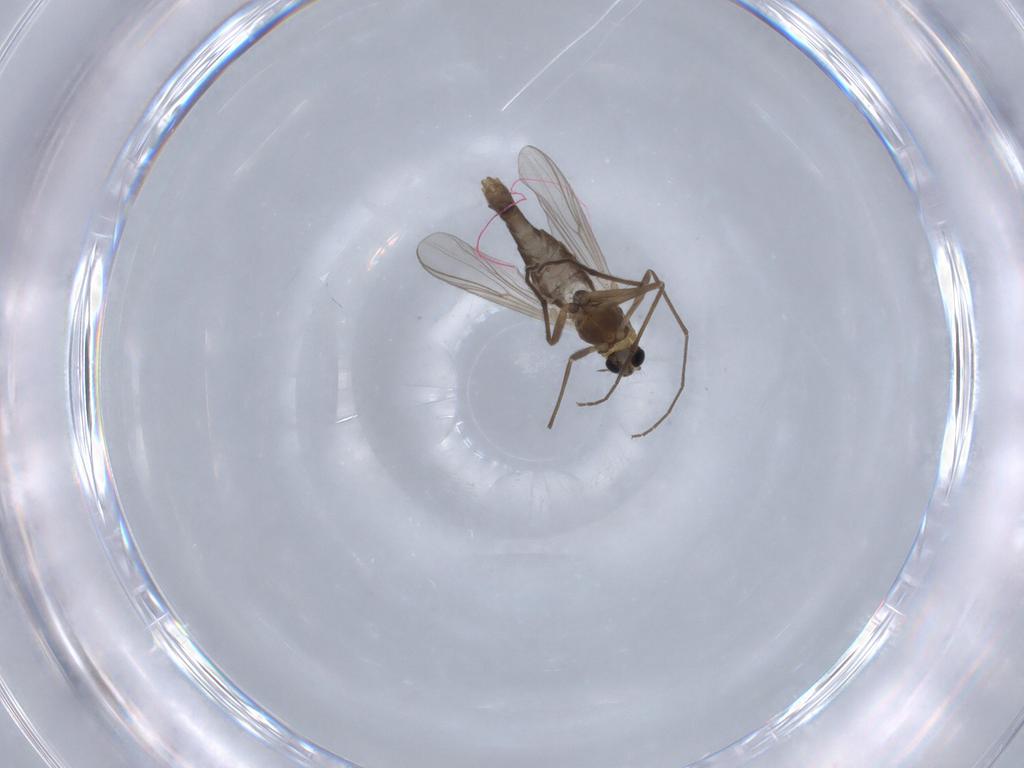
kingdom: Animalia
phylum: Arthropoda
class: Insecta
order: Diptera
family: Chironomidae
